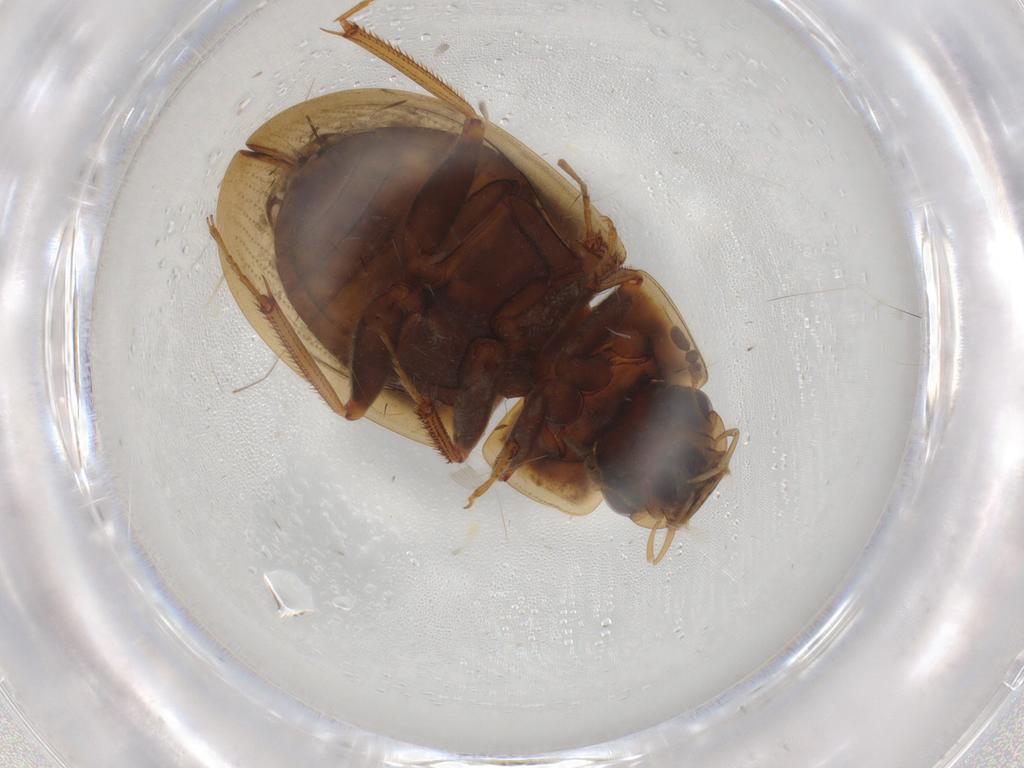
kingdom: Animalia
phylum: Arthropoda
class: Insecta
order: Coleoptera
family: Hydrophilidae
